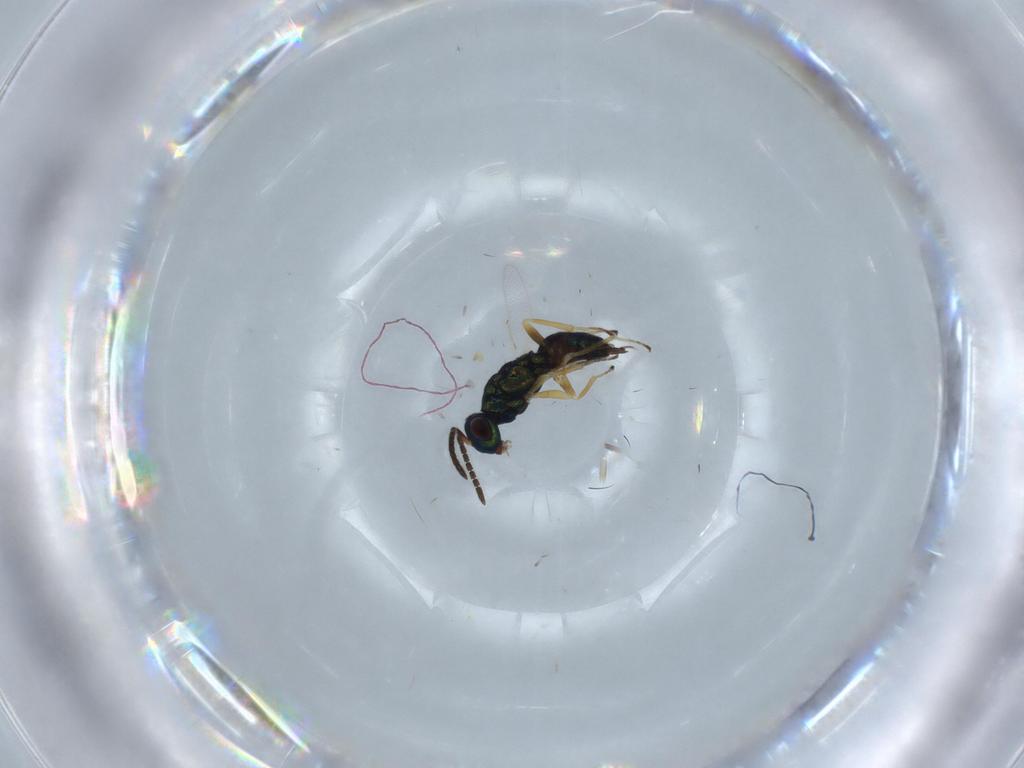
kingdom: Animalia
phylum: Arthropoda
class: Insecta
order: Hymenoptera
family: Pteromalidae
